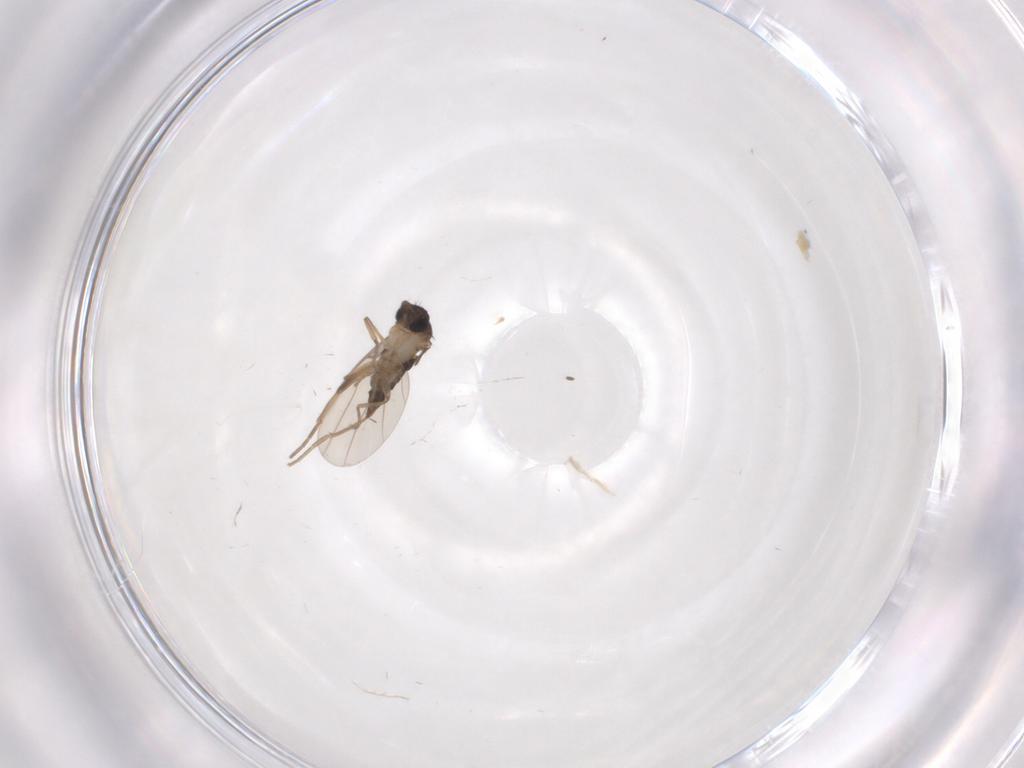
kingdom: Animalia
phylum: Arthropoda
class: Insecta
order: Diptera
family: Phoridae
